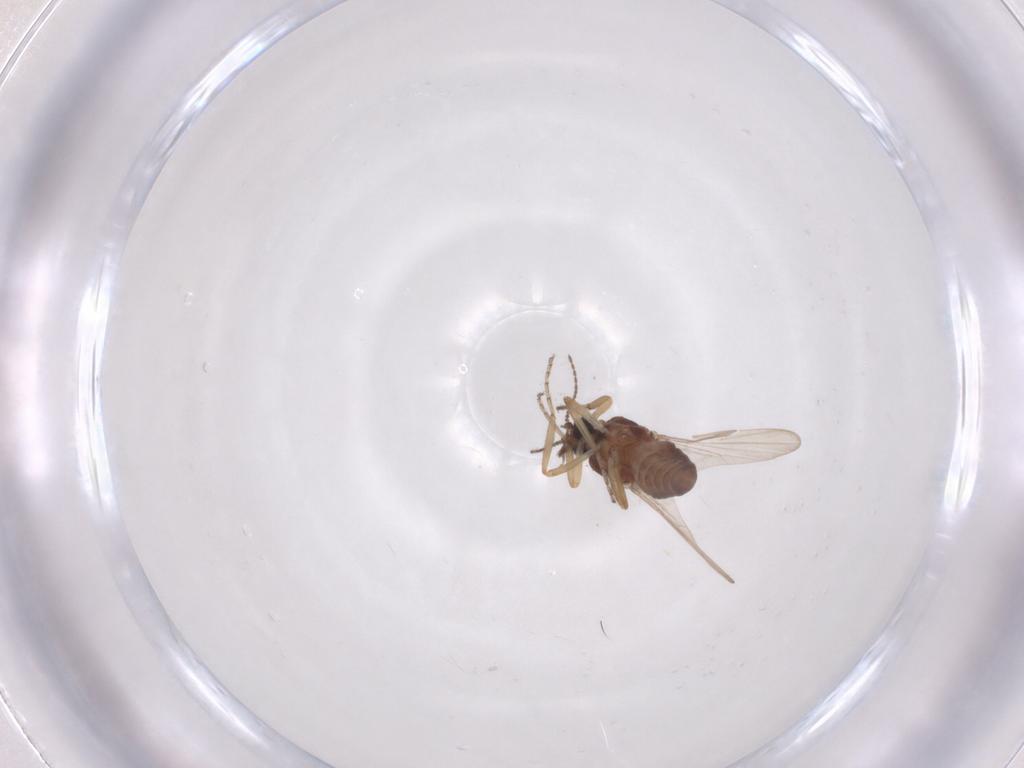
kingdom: Animalia
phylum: Arthropoda
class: Insecta
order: Diptera
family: Ceratopogonidae
